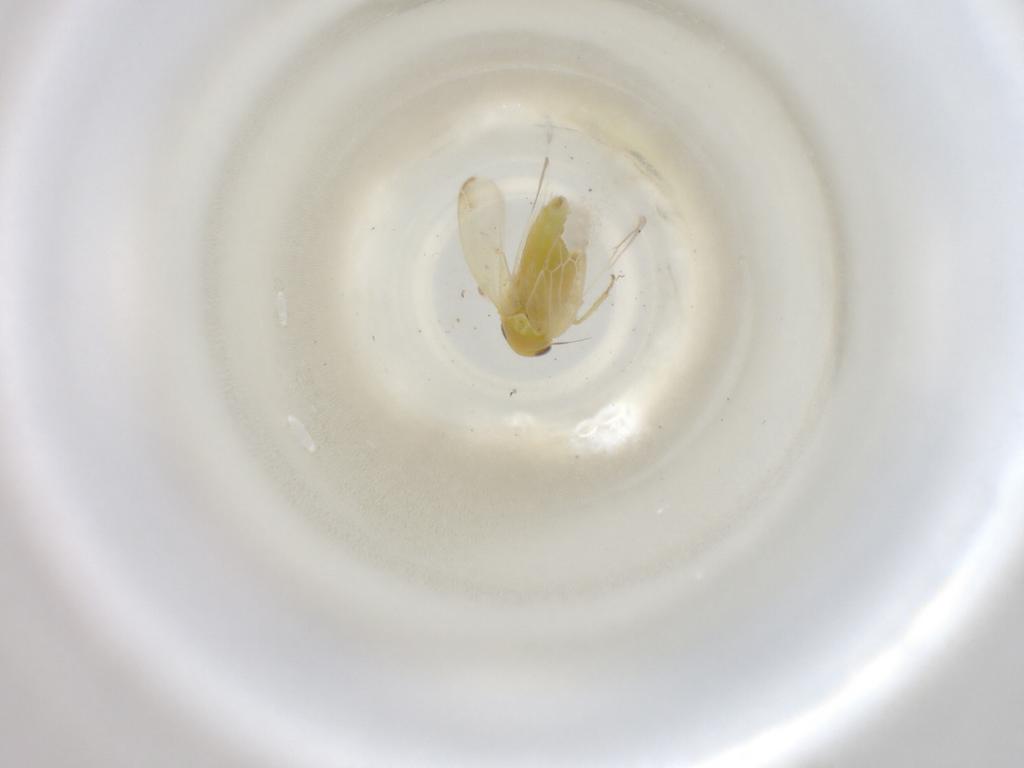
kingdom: Animalia
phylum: Arthropoda
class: Insecta
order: Hemiptera
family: Cicadellidae
